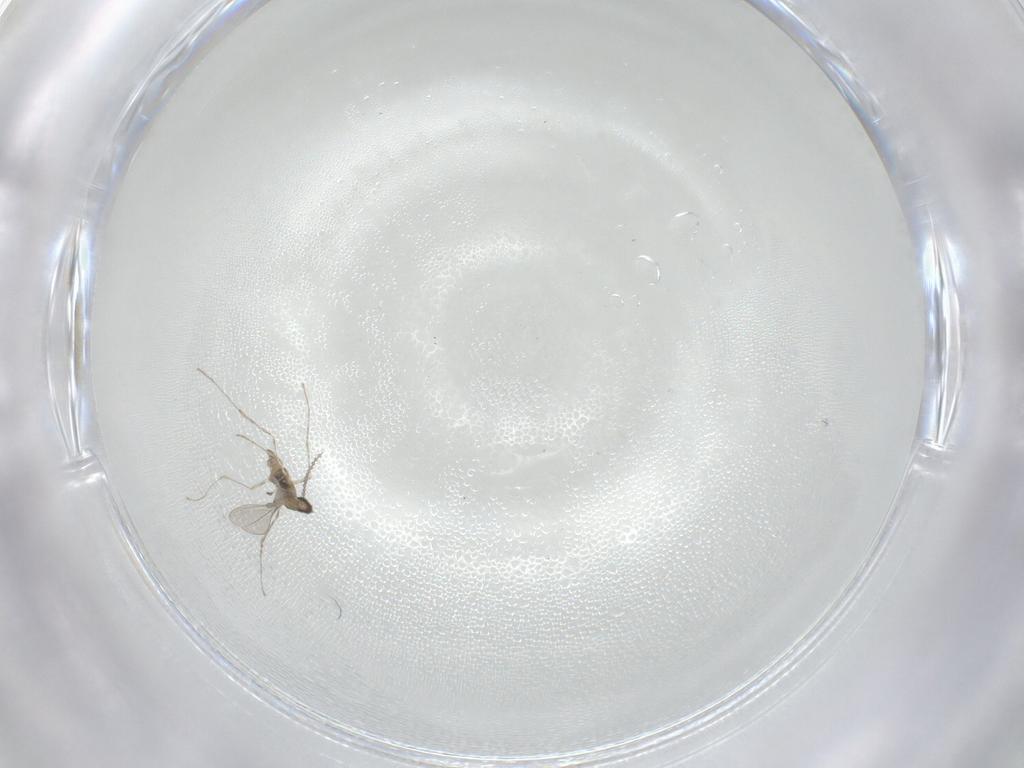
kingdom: Animalia
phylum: Arthropoda
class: Insecta
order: Diptera
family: Cecidomyiidae
